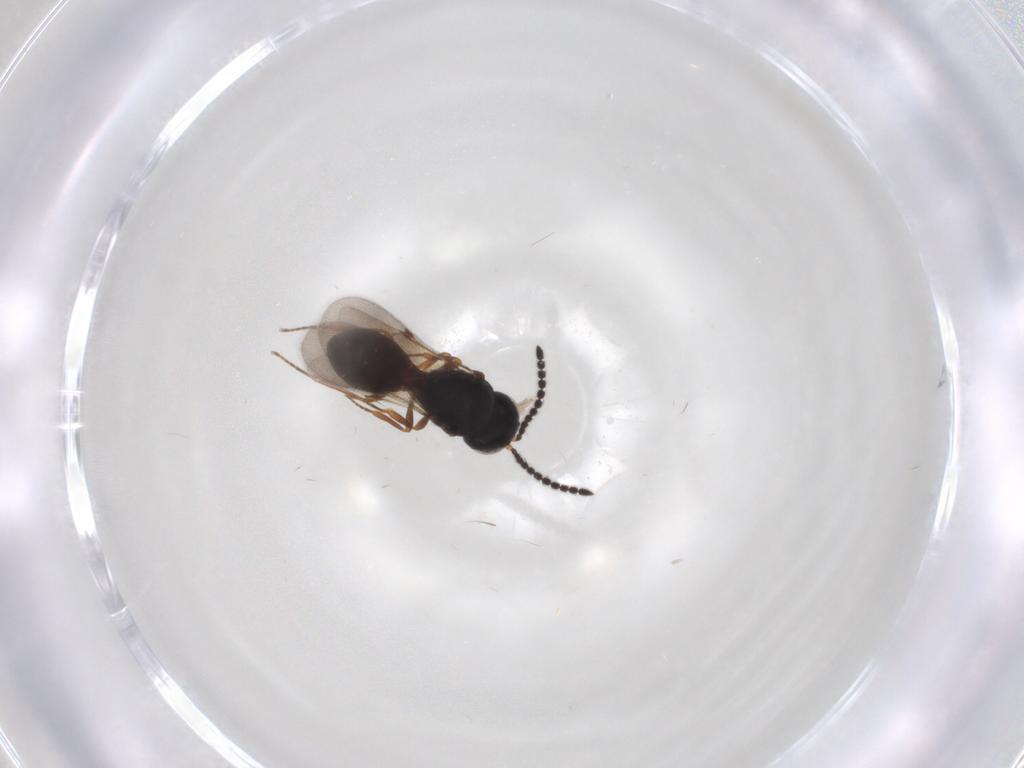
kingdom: Animalia
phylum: Arthropoda
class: Insecta
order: Hymenoptera
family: Scelionidae
